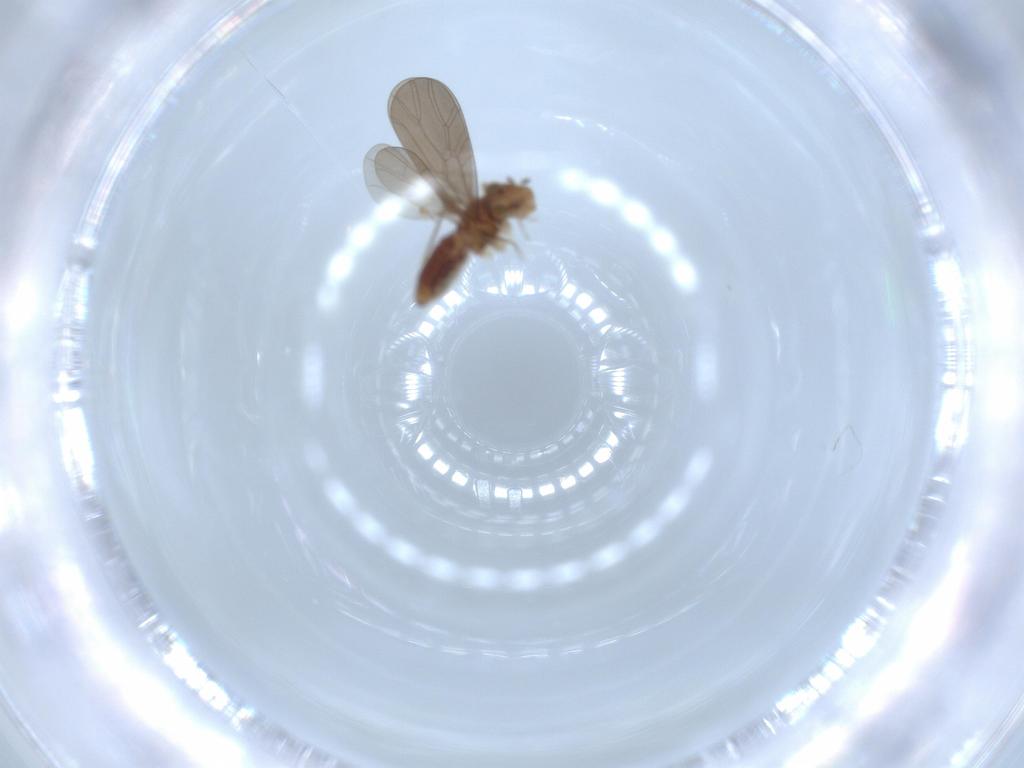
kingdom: Animalia
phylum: Arthropoda
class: Insecta
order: Psocodea
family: Lepidopsocidae
